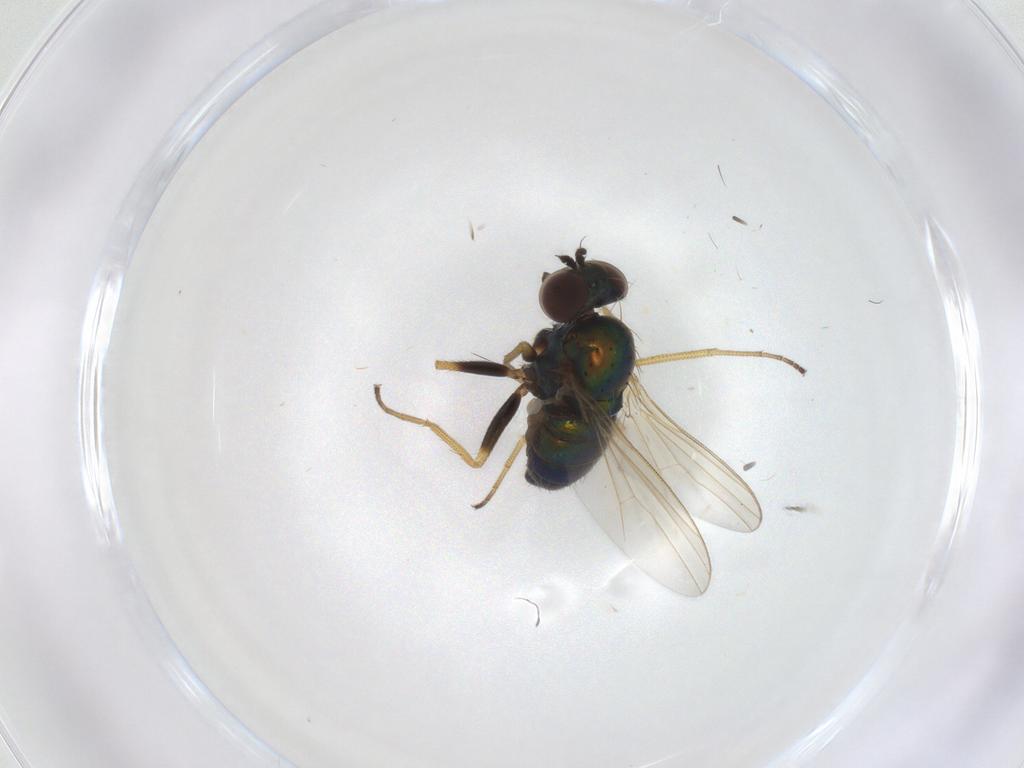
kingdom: Animalia
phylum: Arthropoda
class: Insecta
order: Diptera
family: Dolichopodidae
